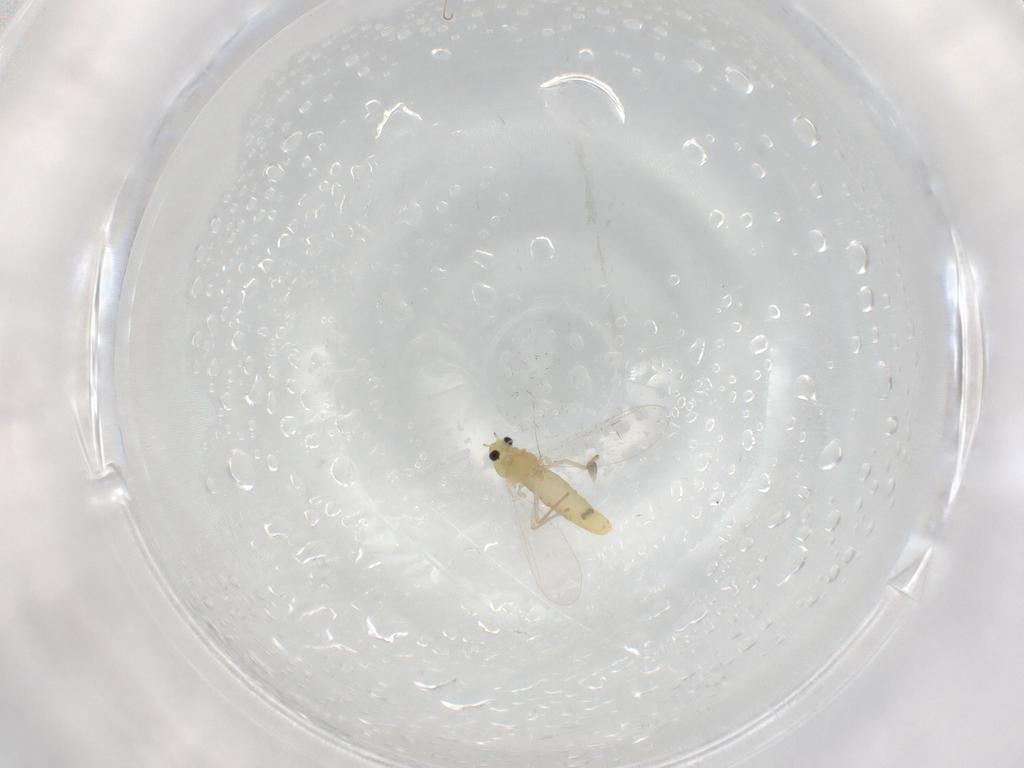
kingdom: Animalia
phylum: Arthropoda
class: Insecta
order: Diptera
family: Chironomidae
